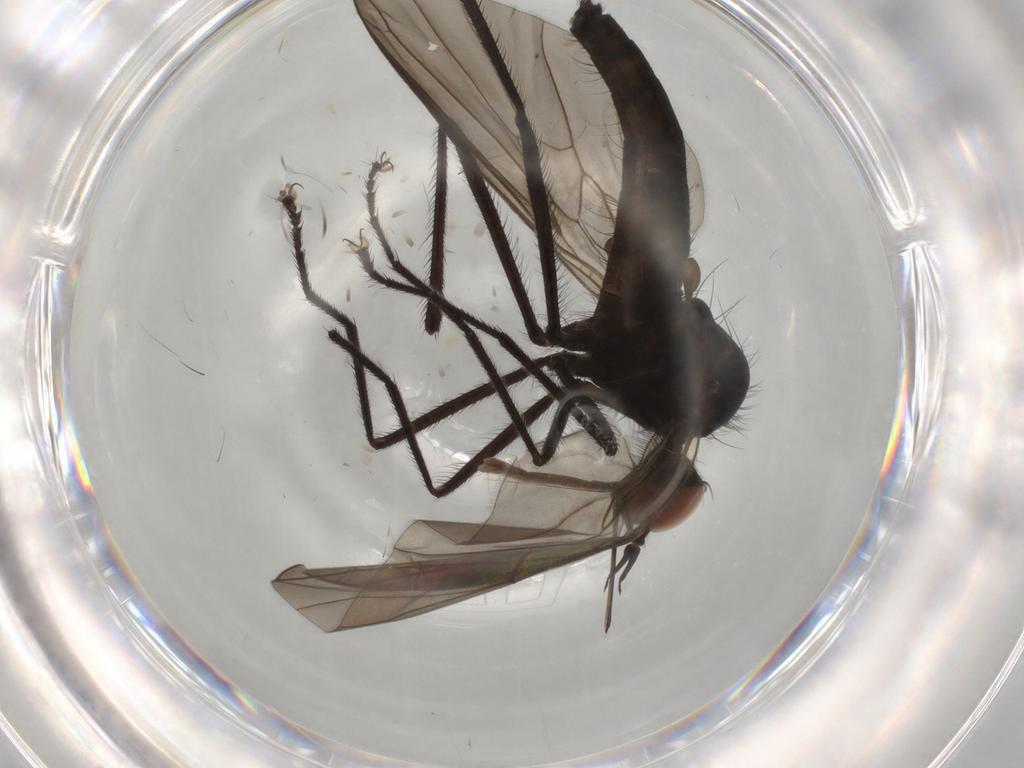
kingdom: Animalia
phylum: Arthropoda
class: Insecta
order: Diptera
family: Empididae
